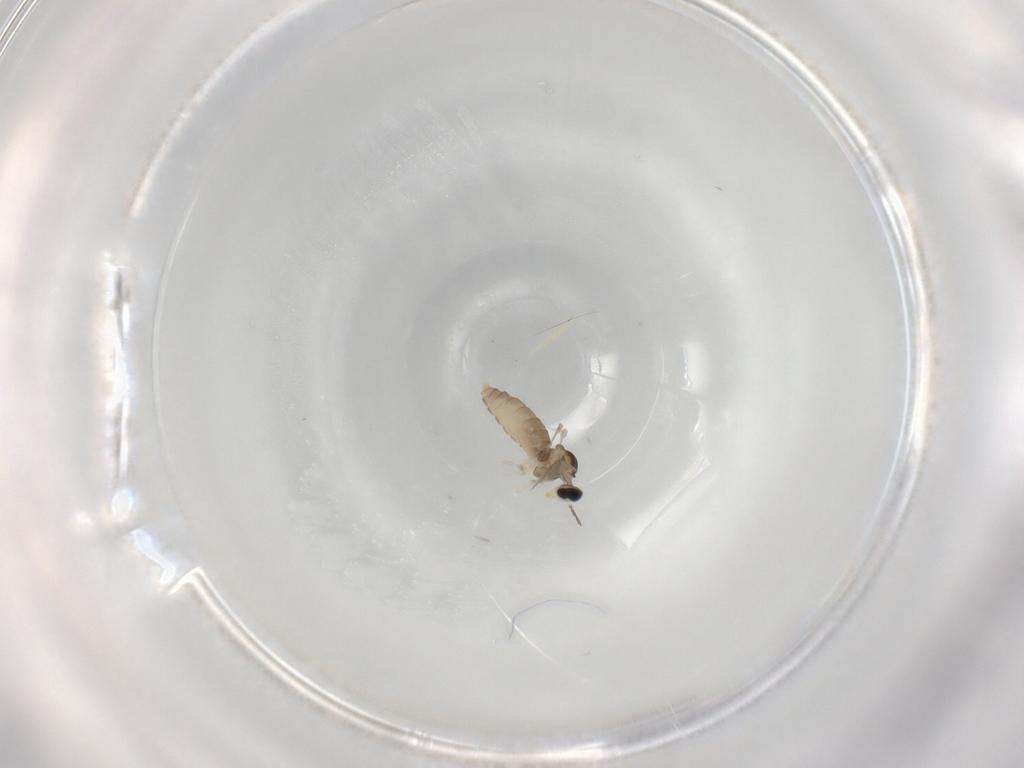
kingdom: Animalia
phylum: Arthropoda
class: Insecta
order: Diptera
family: Cecidomyiidae
